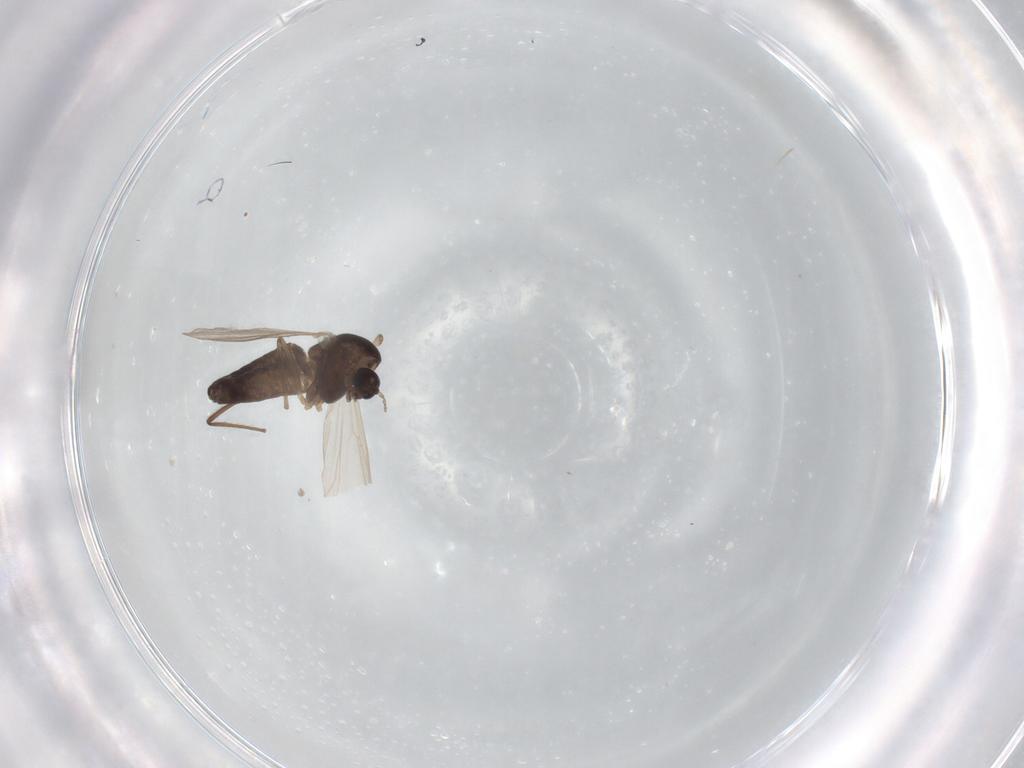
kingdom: Animalia
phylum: Arthropoda
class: Insecta
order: Diptera
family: Chironomidae
